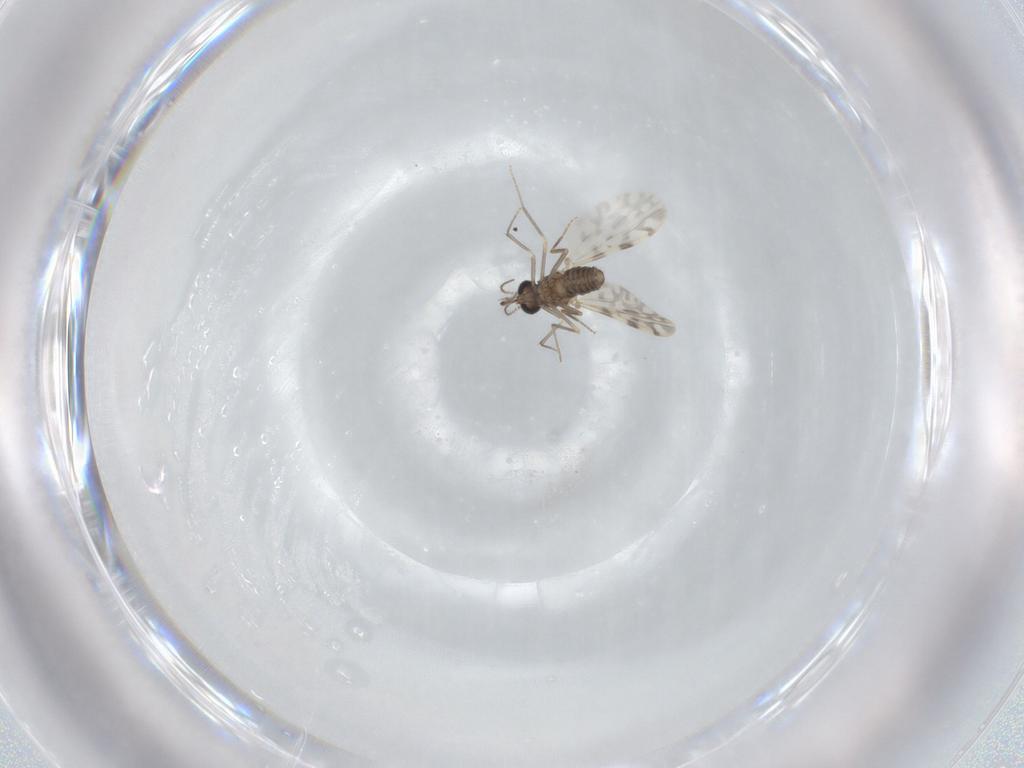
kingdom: Animalia
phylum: Arthropoda
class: Insecta
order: Diptera
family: Ceratopogonidae
